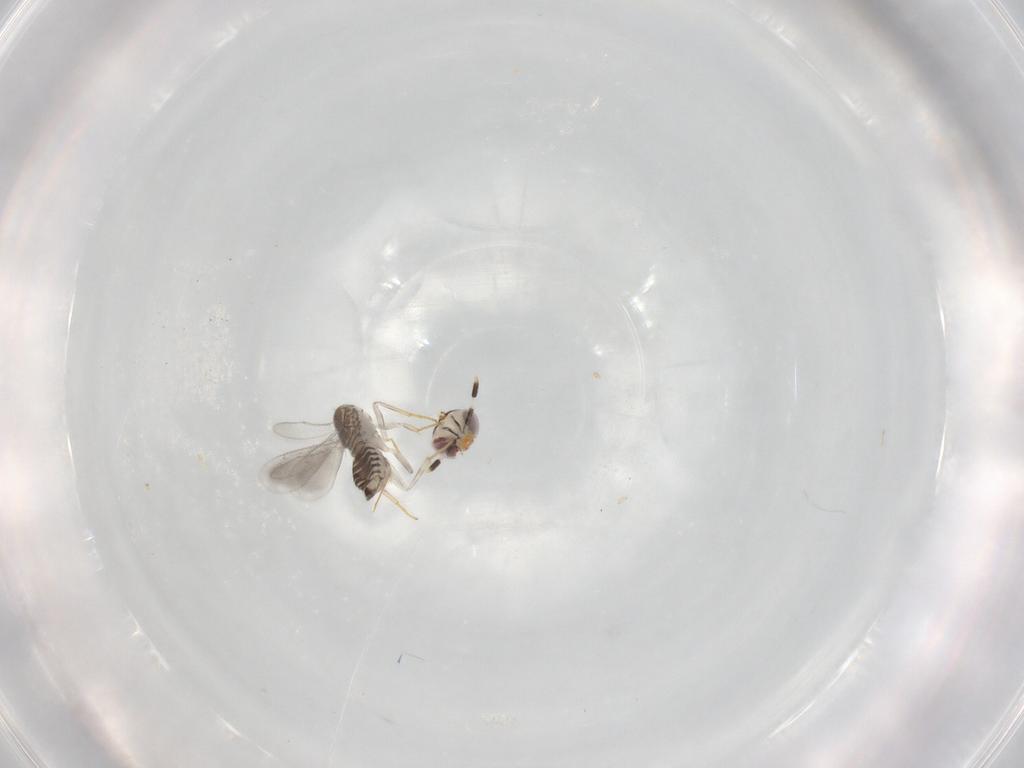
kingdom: Animalia
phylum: Arthropoda
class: Insecta
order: Hymenoptera
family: Aphelinidae
